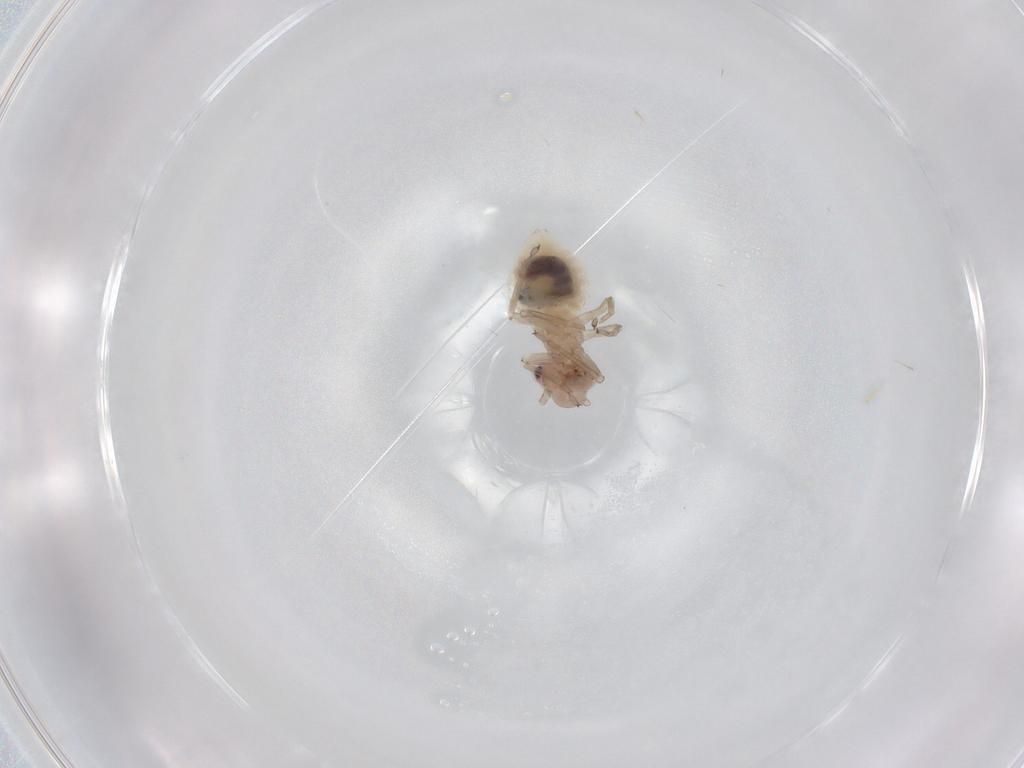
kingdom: Animalia
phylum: Arthropoda
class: Insecta
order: Psocodea
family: Stenopsocidae
